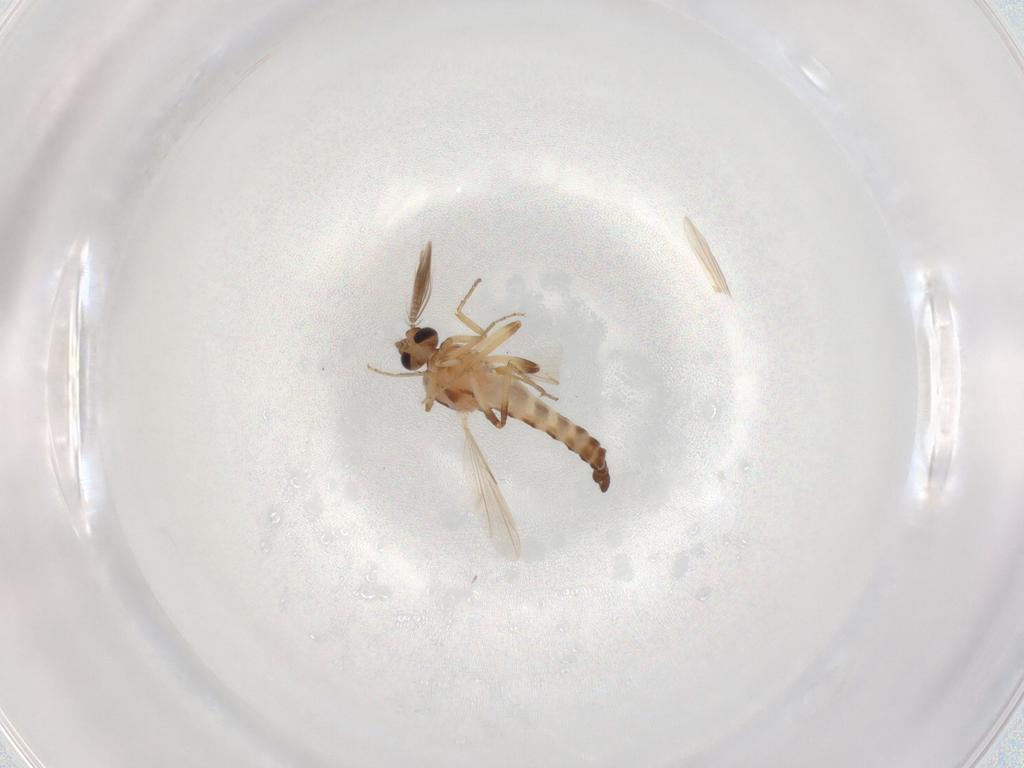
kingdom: Animalia
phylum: Arthropoda
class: Insecta
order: Diptera
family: Ceratopogonidae
